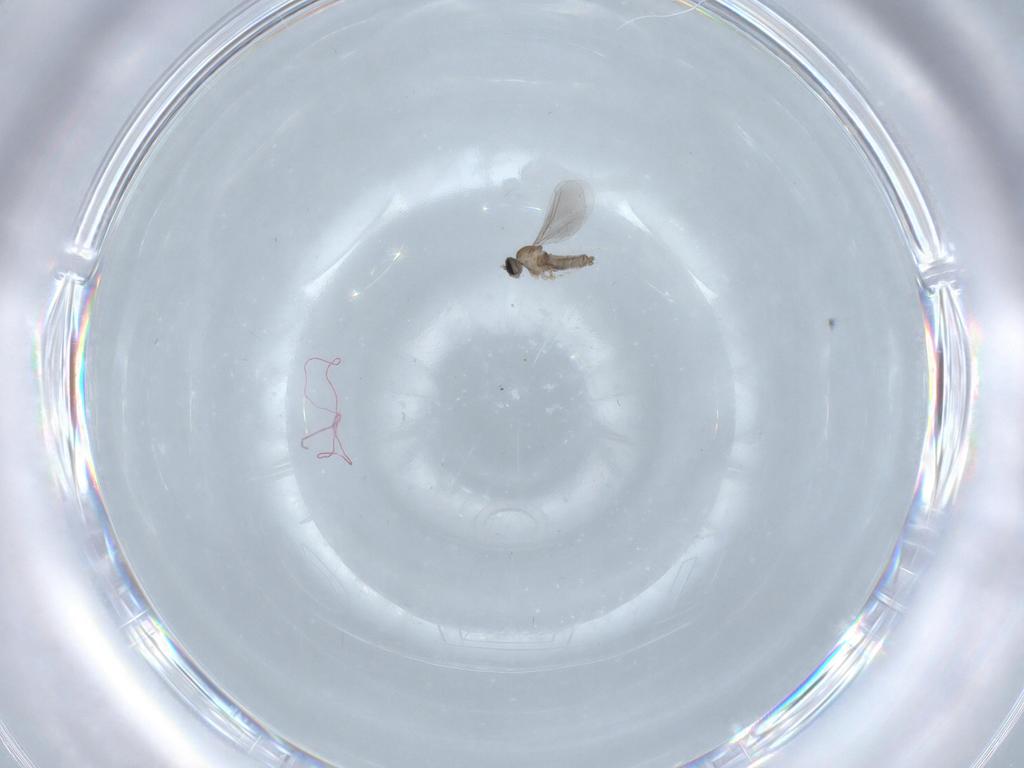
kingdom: Animalia
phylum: Arthropoda
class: Insecta
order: Diptera
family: Cecidomyiidae
